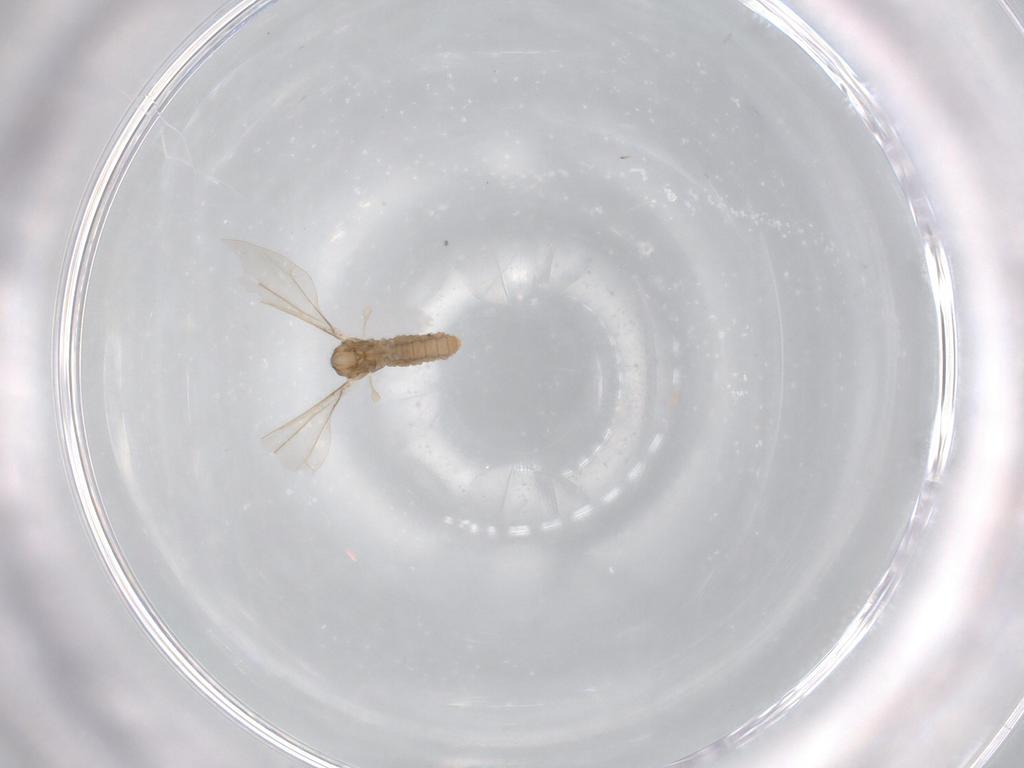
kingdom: Animalia
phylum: Arthropoda
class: Insecta
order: Diptera
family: Cecidomyiidae
